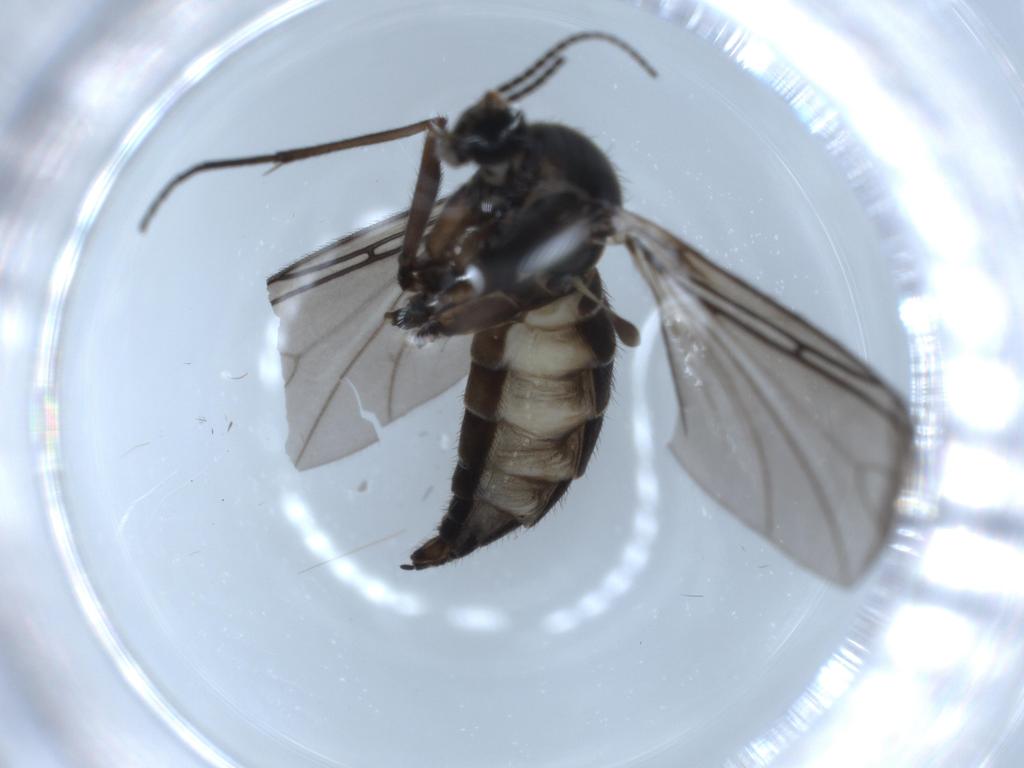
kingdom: Animalia
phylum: Arthropoda
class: Insecta
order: Diptera
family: Sciaridae
